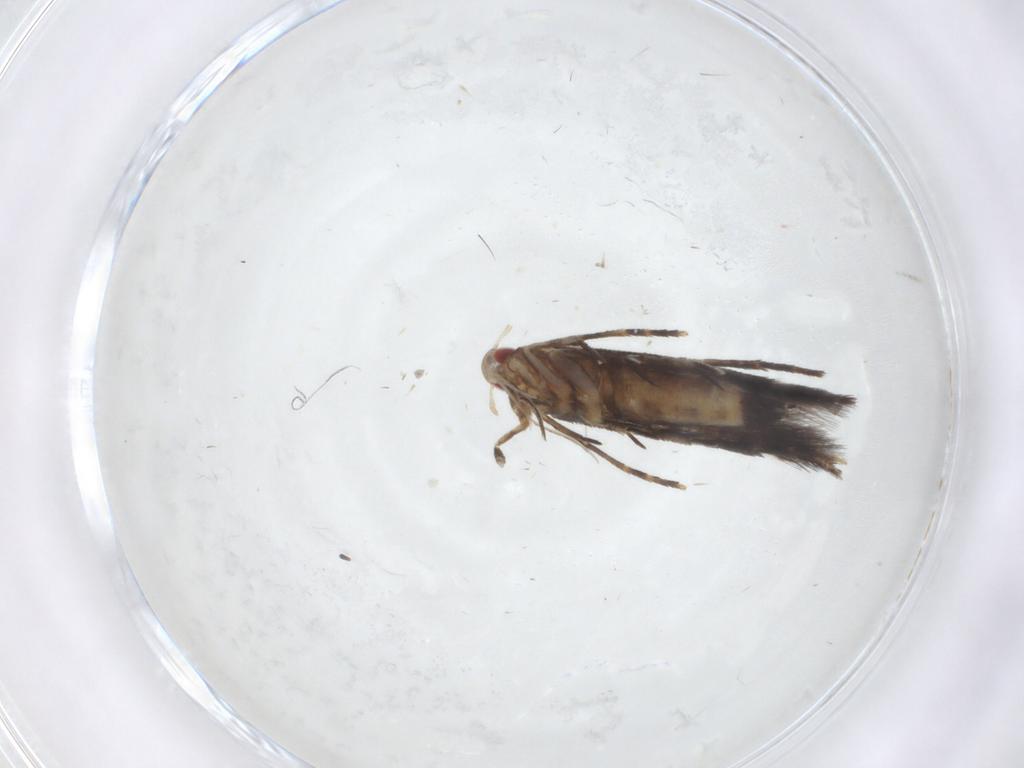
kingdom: Animalia
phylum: Arthropoda
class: Insecta
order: Lepidoptera
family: Cosmopterigidae
